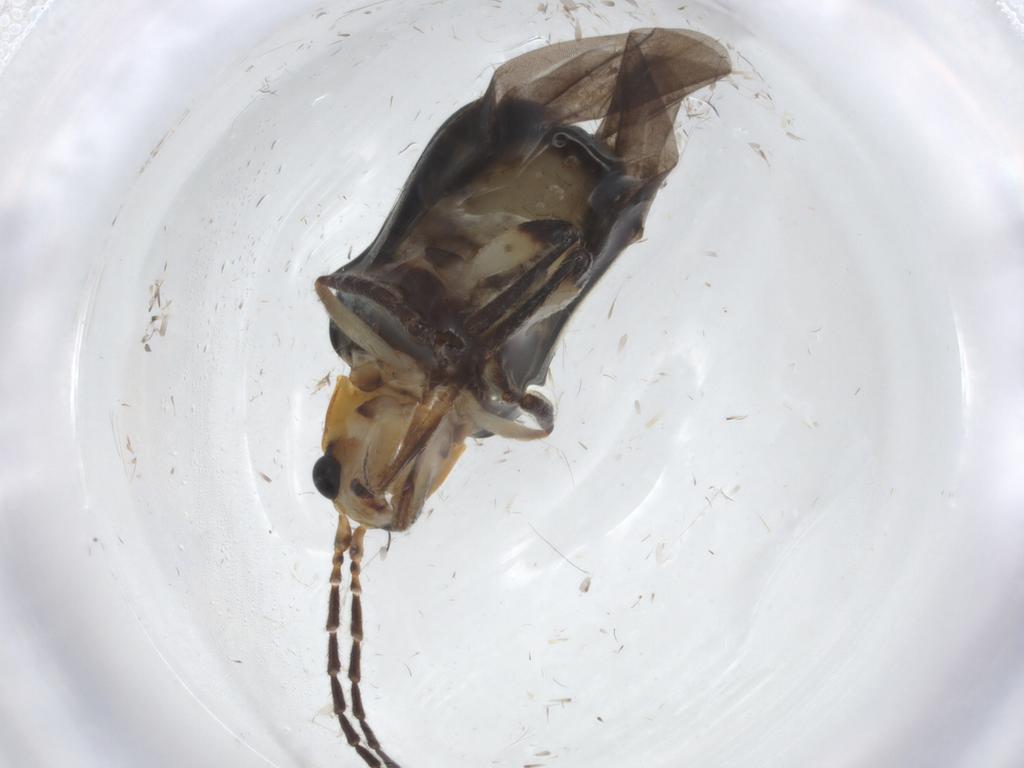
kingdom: Animalia
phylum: Arthropoda
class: Insecta
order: Coleoptera
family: Chrysomelidae
